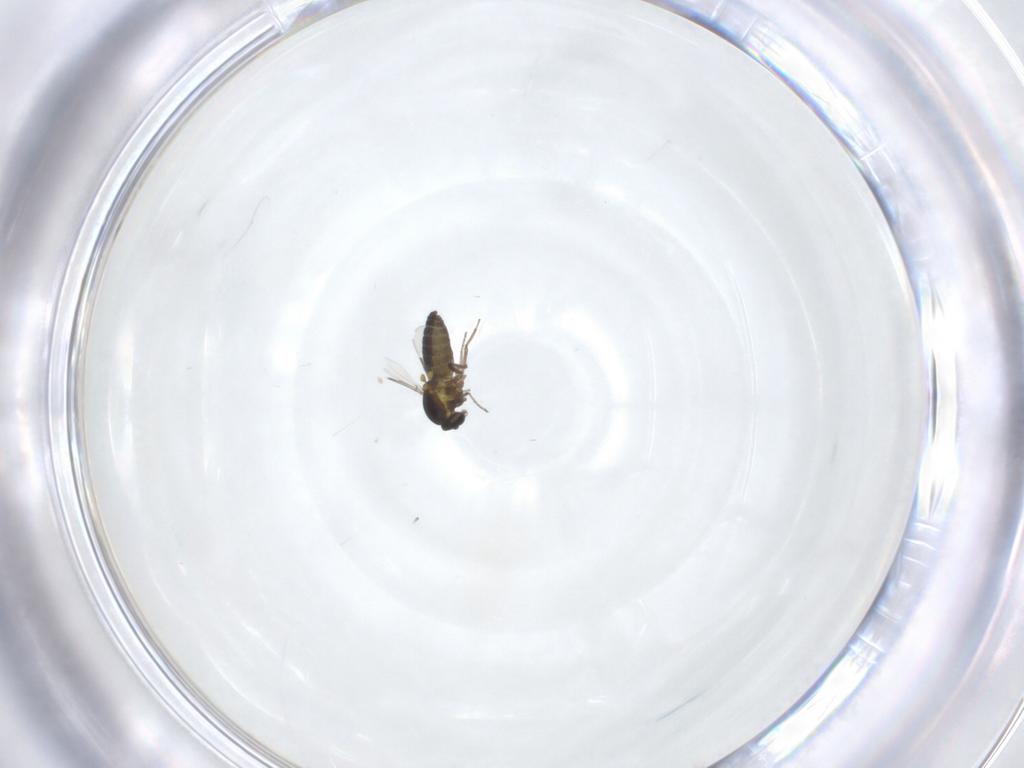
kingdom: Animalia
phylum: Arthropoda
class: Insecta
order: Diptera
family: Ceratopogonidae
